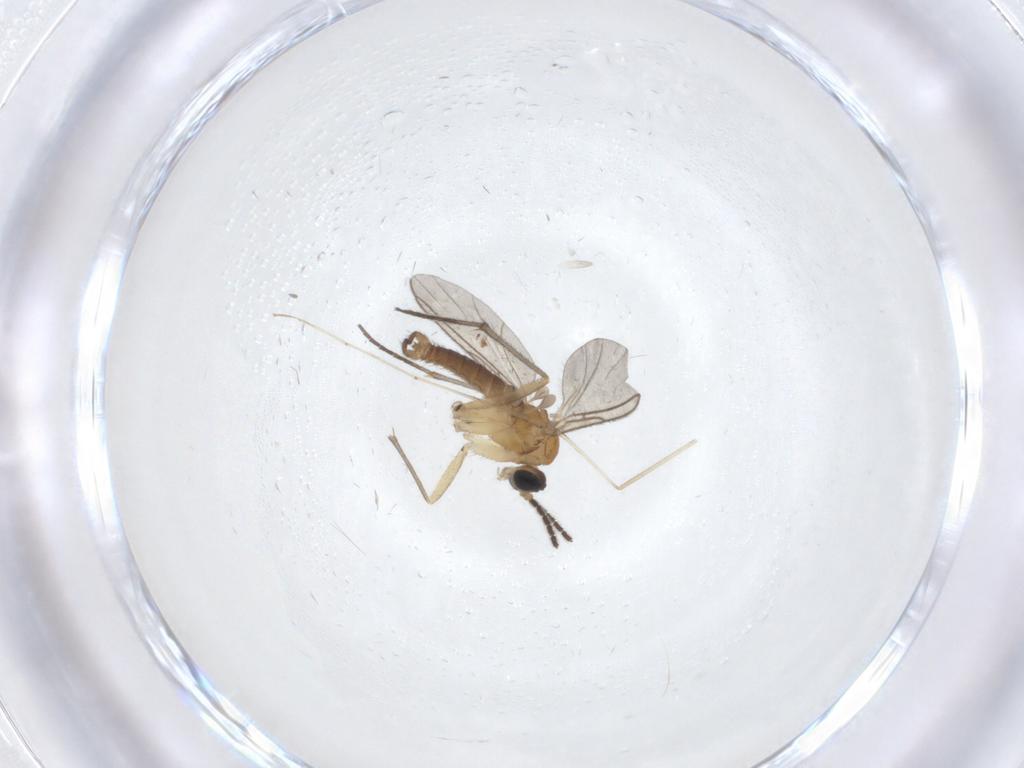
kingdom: Animalia
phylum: Arthropoda
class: Insecta
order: Diptera
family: Sciaridae
